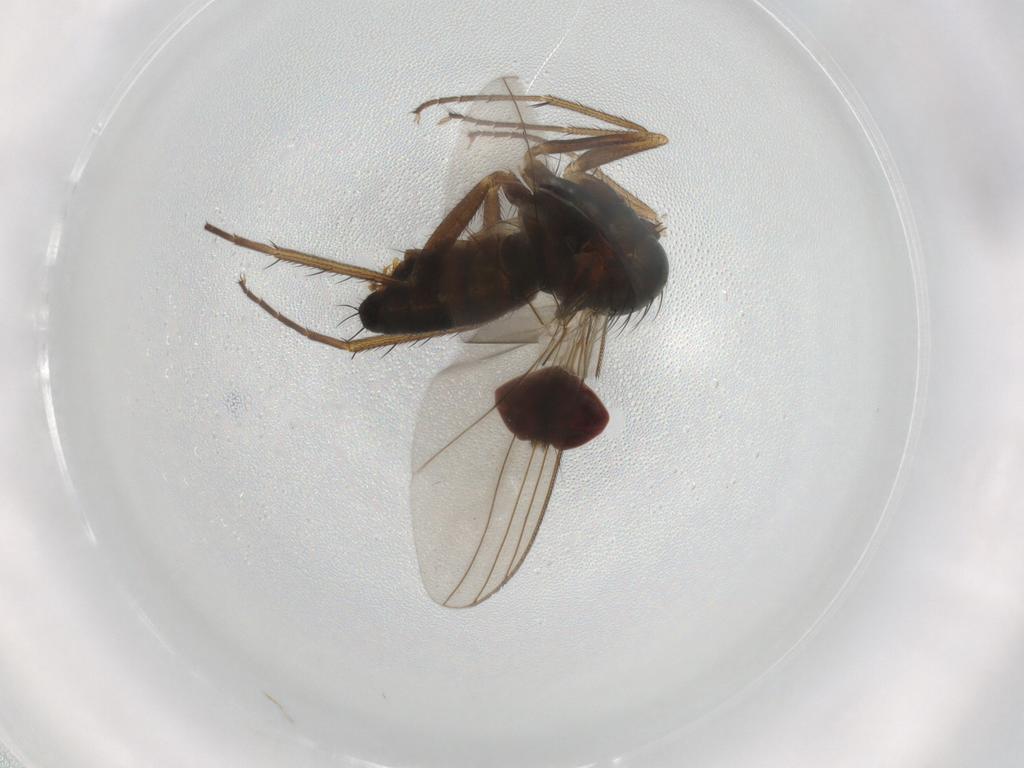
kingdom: Animalia
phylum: Arthropoda
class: Insecta
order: Diptera
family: Dolichopodidae
